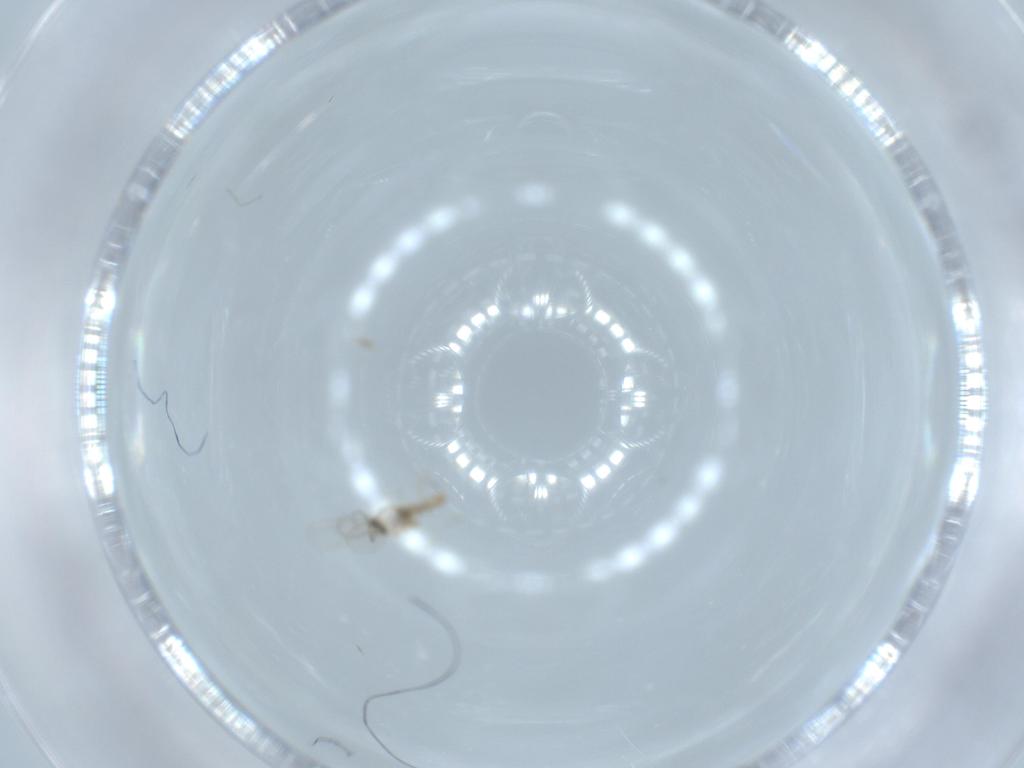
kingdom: Animalia
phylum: Arthropoda
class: Insecta
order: Diptera
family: Cecidomyiidae
